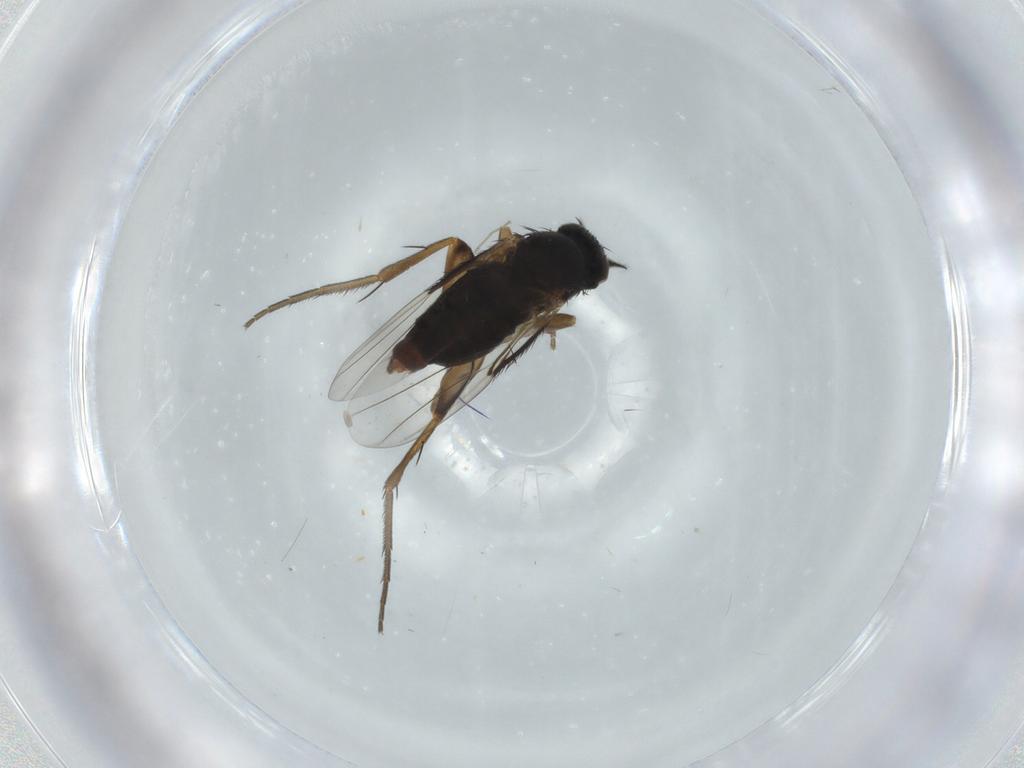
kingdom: Animalia
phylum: Arthropoda
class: Insecta
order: Diptera
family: Phoridae
